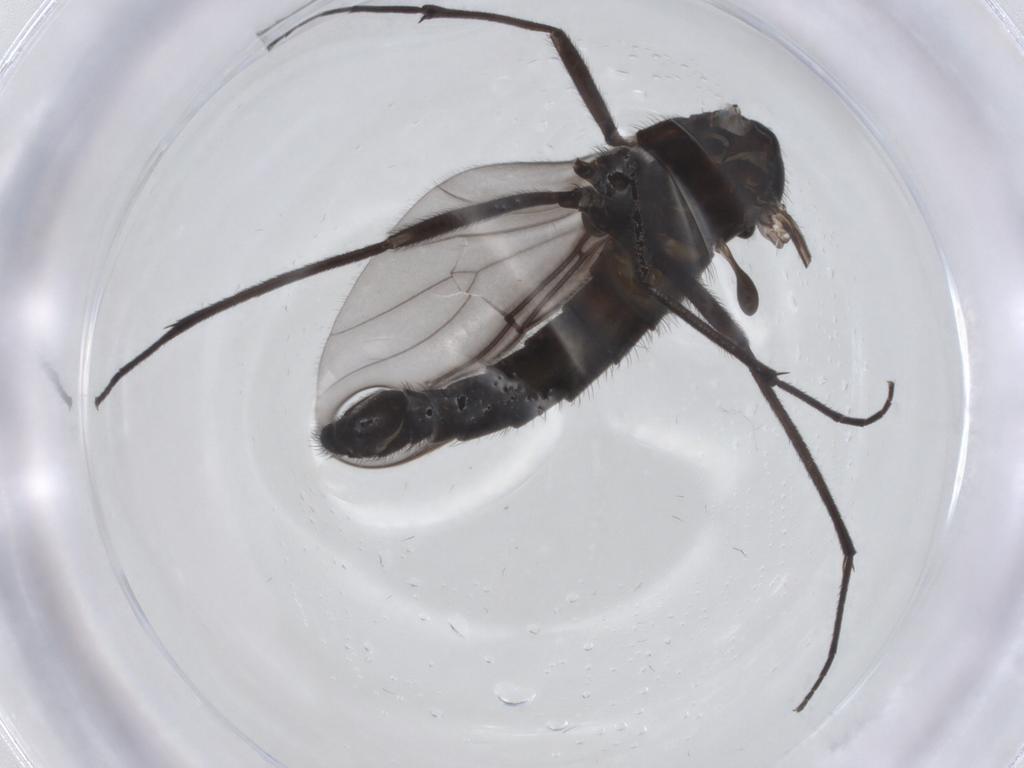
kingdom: Animalia
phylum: Arthropoda
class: Insecta
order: Diptera
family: Sciaridae
